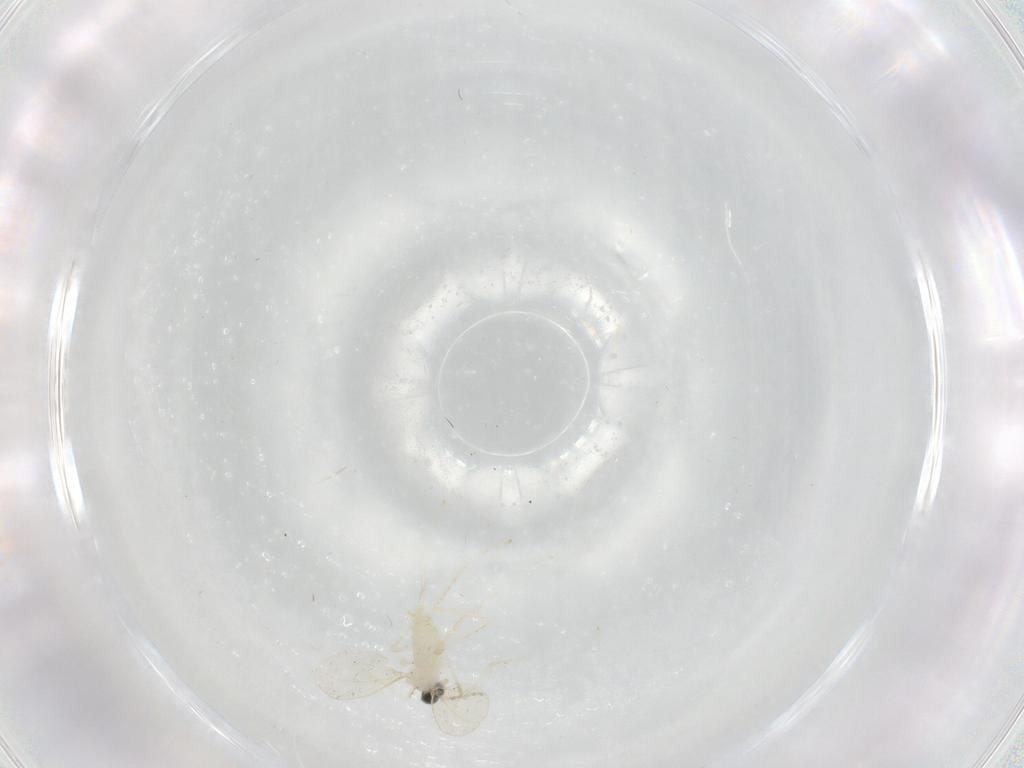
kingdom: Animalia
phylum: Arthropoda
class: Insecta
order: Diptera
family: Cecidomyiidae
